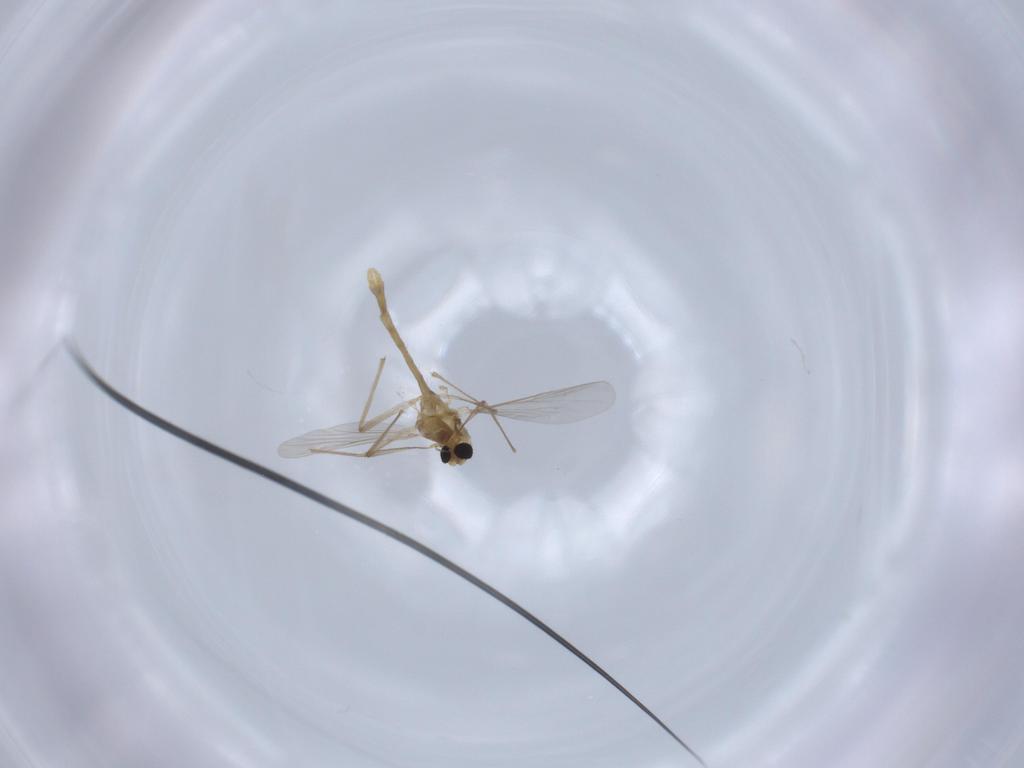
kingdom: Animalia
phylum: Arthropoda
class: Insecta
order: Diptera
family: Chironomidae
